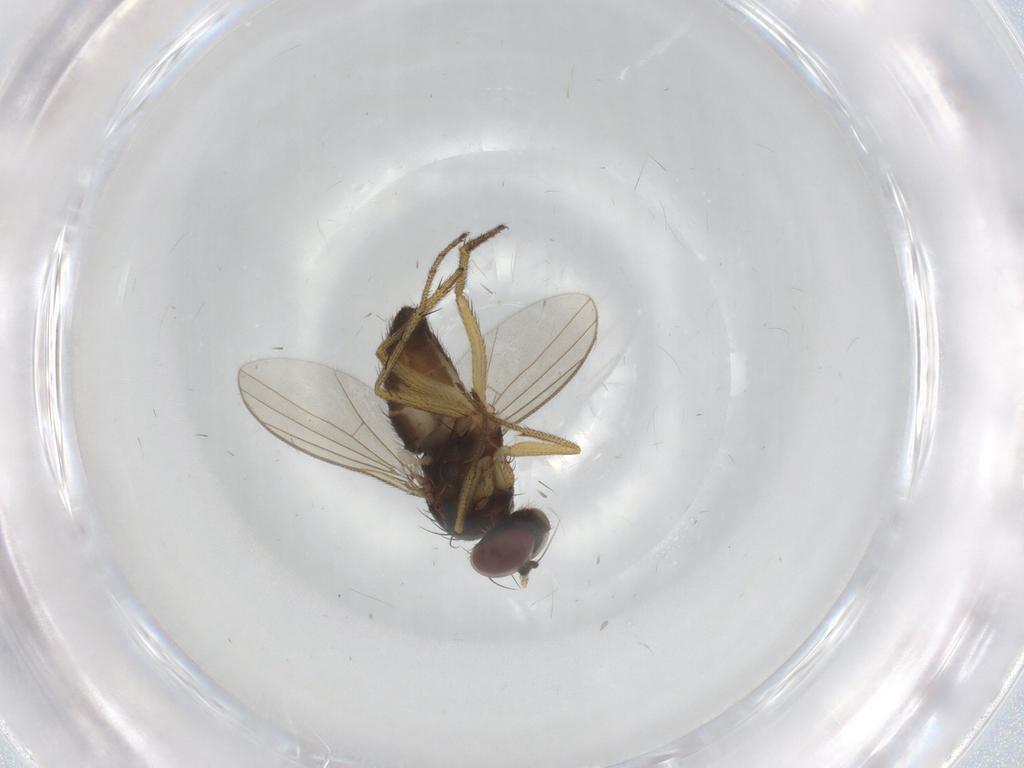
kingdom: Animalia
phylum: Arthropoda
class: Insecta
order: Diptera
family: Dolichopodidae
